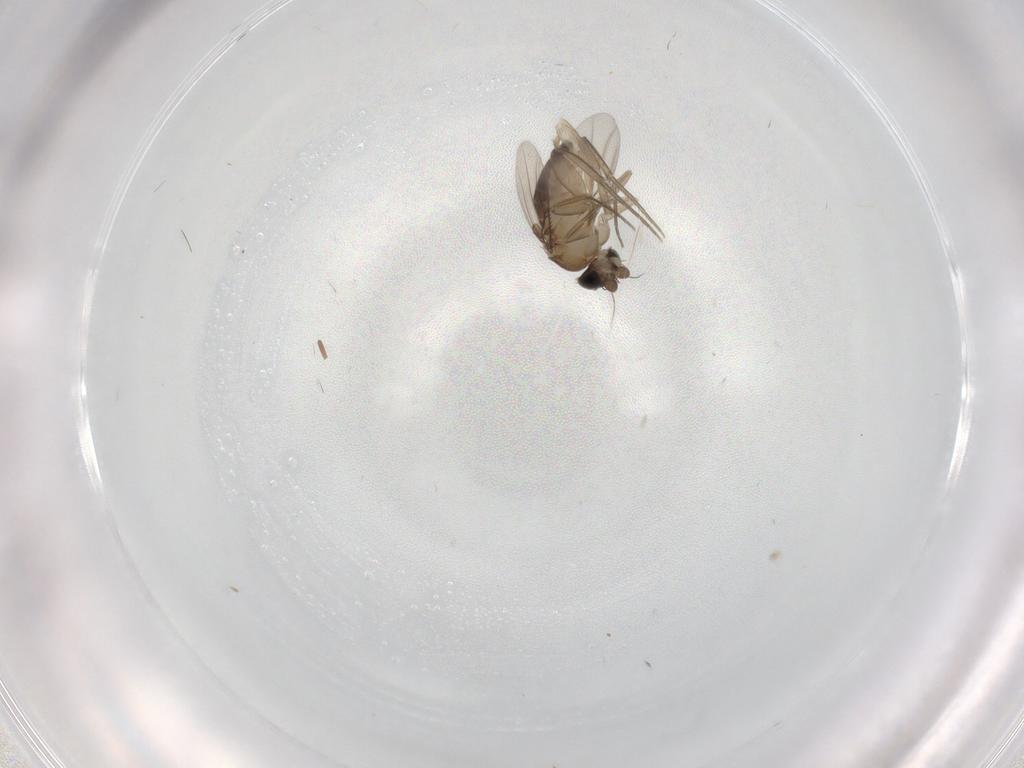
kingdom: Animalia
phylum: Arthropoda
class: Insecta
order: Diptera
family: Phoridae
